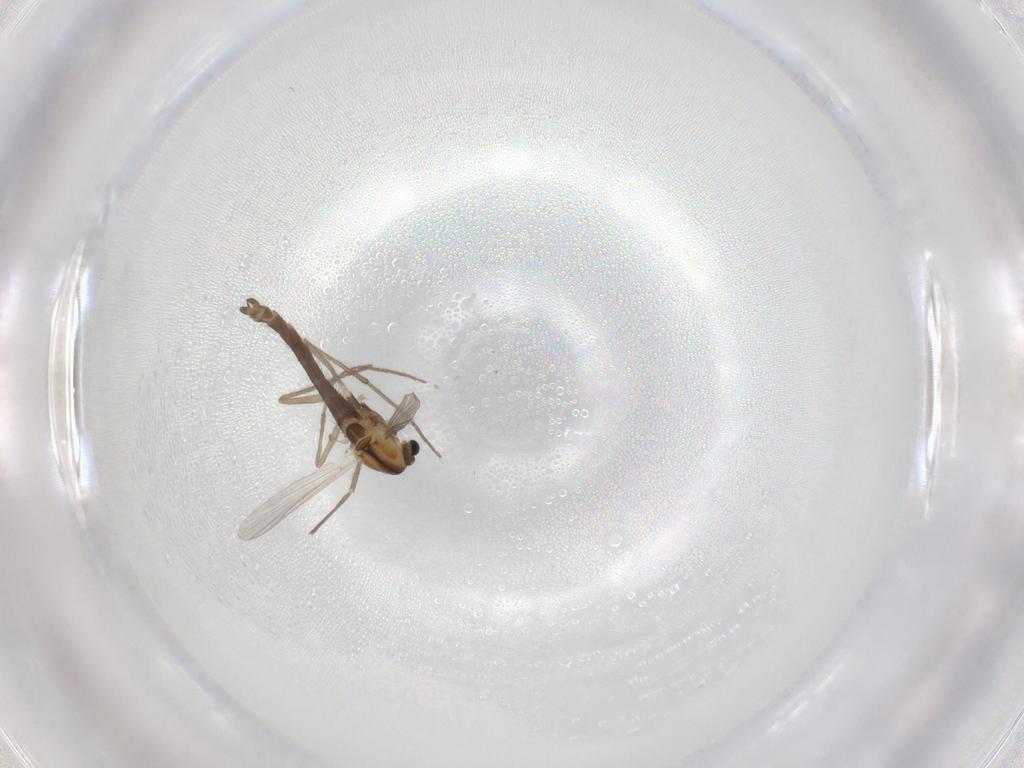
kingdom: Animalia
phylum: Arthropoda
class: Insecta
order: Diptera
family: Chironomidae
